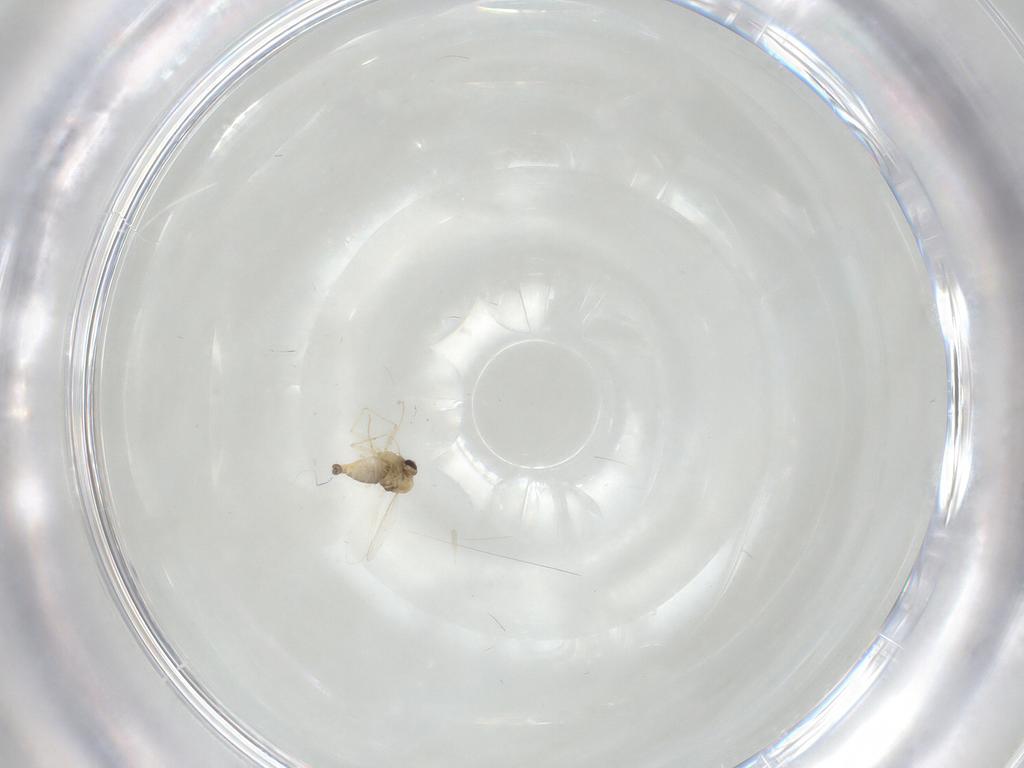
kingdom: Animalia
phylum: Arthropoda
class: Insecta
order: Diptera
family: Chironomidae
